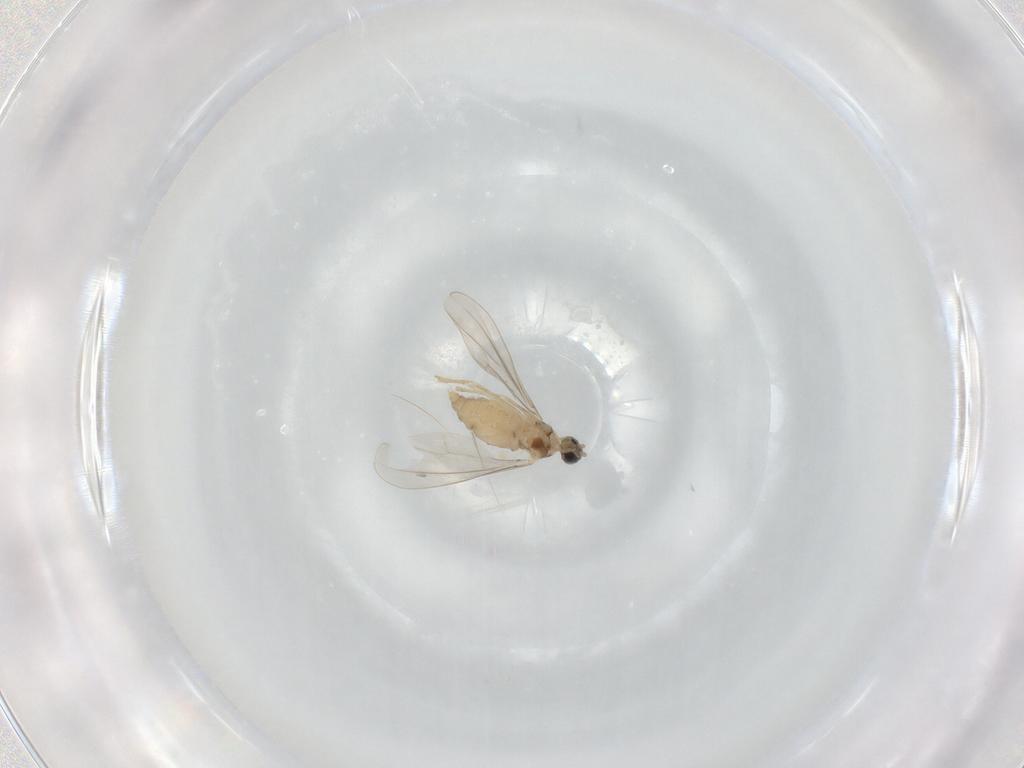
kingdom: Animalia
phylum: Arthropoda
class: Insecta
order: Diptera
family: Cecidomyiidae
